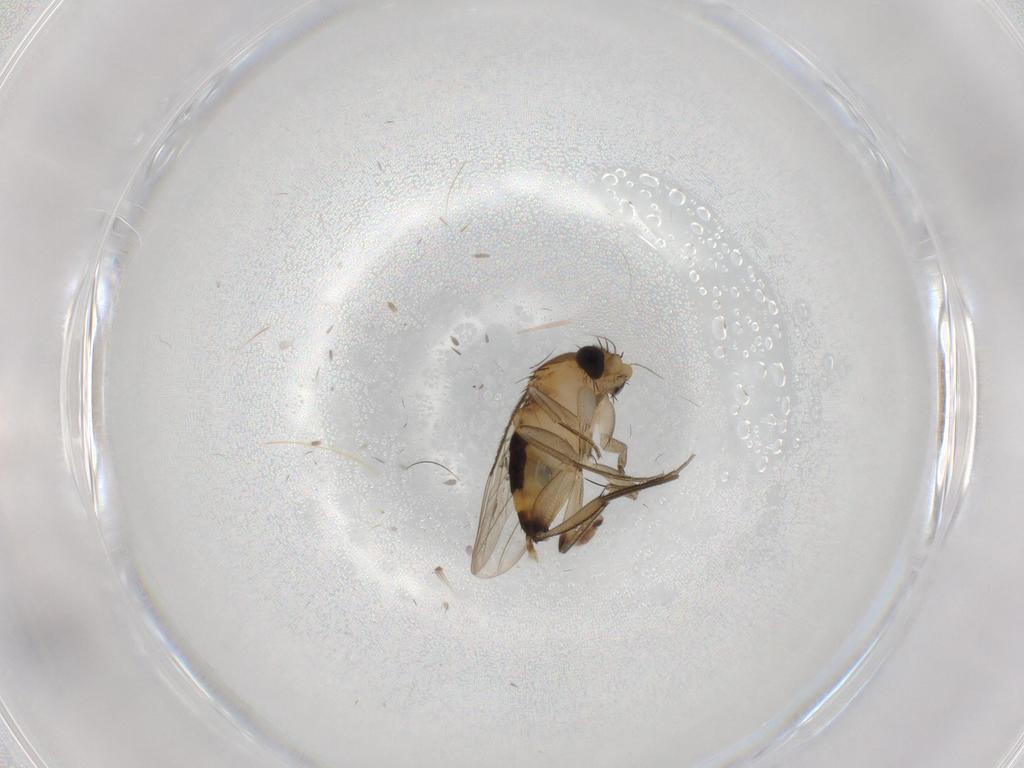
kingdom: Animalia
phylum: Arthropoda
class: Insecta
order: Diptera
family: Phoridae
